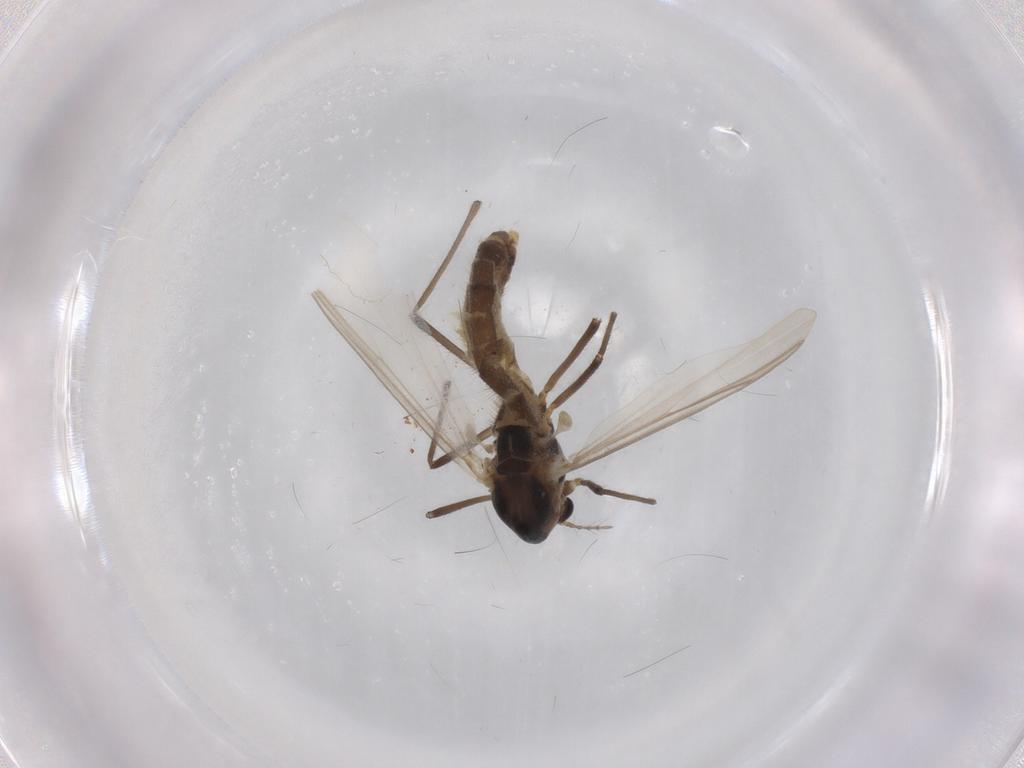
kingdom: Animalia
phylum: Arthropoda
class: Insecta
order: Diptera
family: Chironomidae
